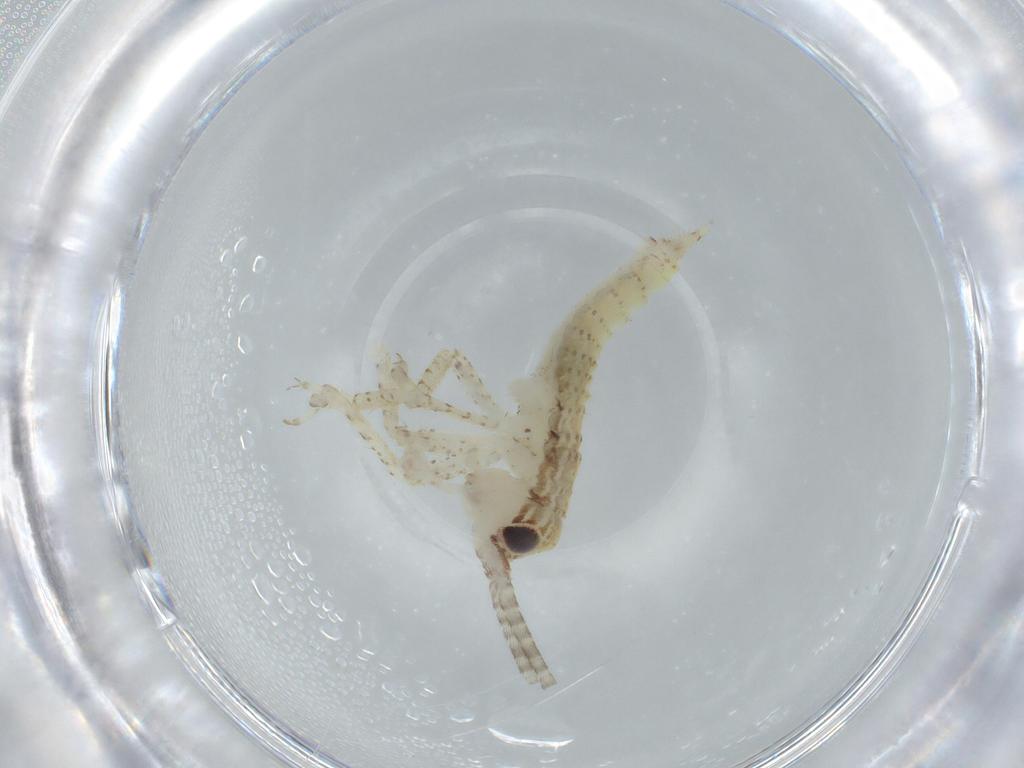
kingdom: Animalia
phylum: Arthropoda
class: Insecta
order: Orthoptera
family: Gryllidae
